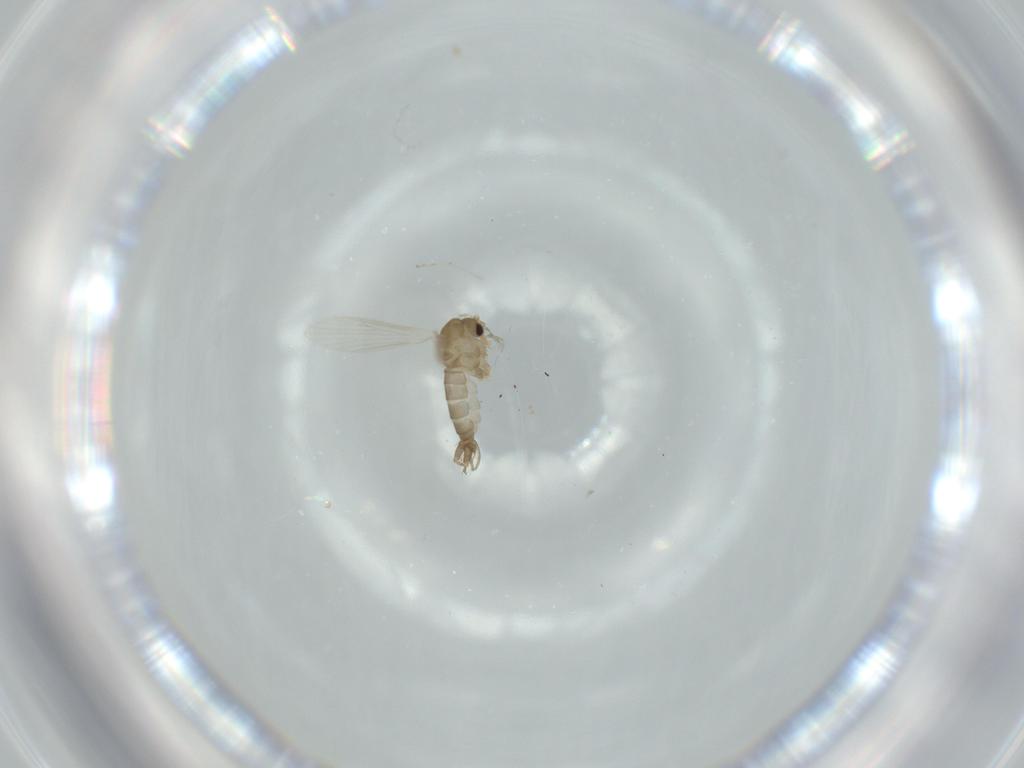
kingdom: Animalia
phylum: Arthropoda
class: Insecta
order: Diptera
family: Psychodidae
